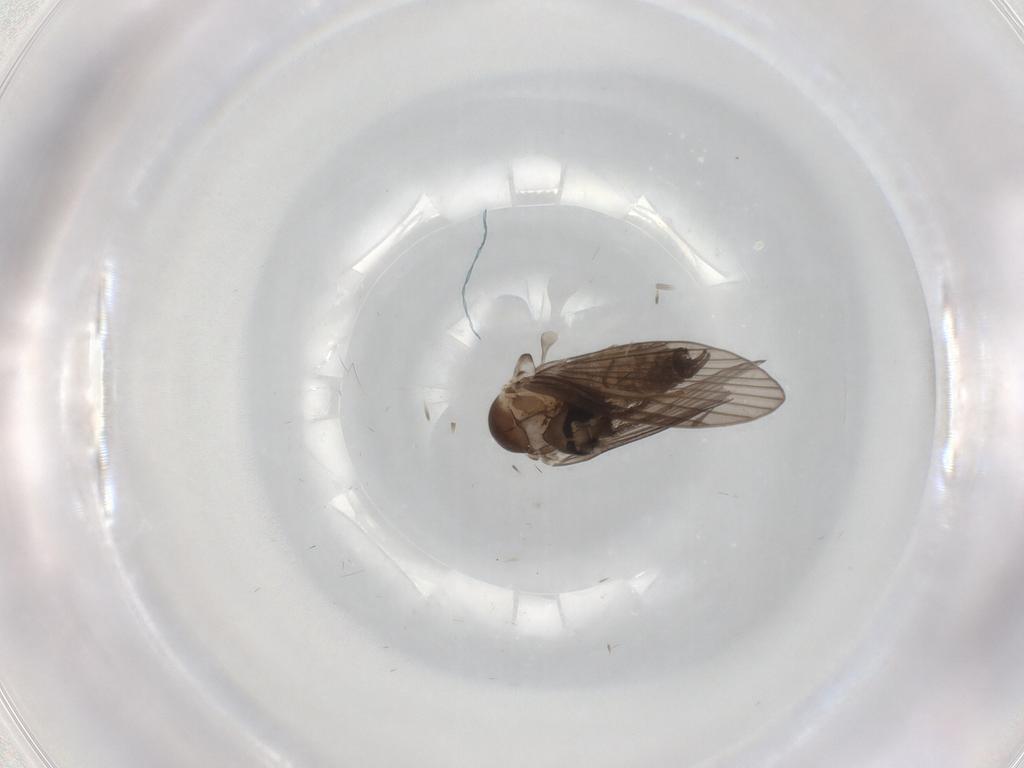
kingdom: Animalia
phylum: Arthropoda
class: Insecta
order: Diptera
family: Psychodidae
